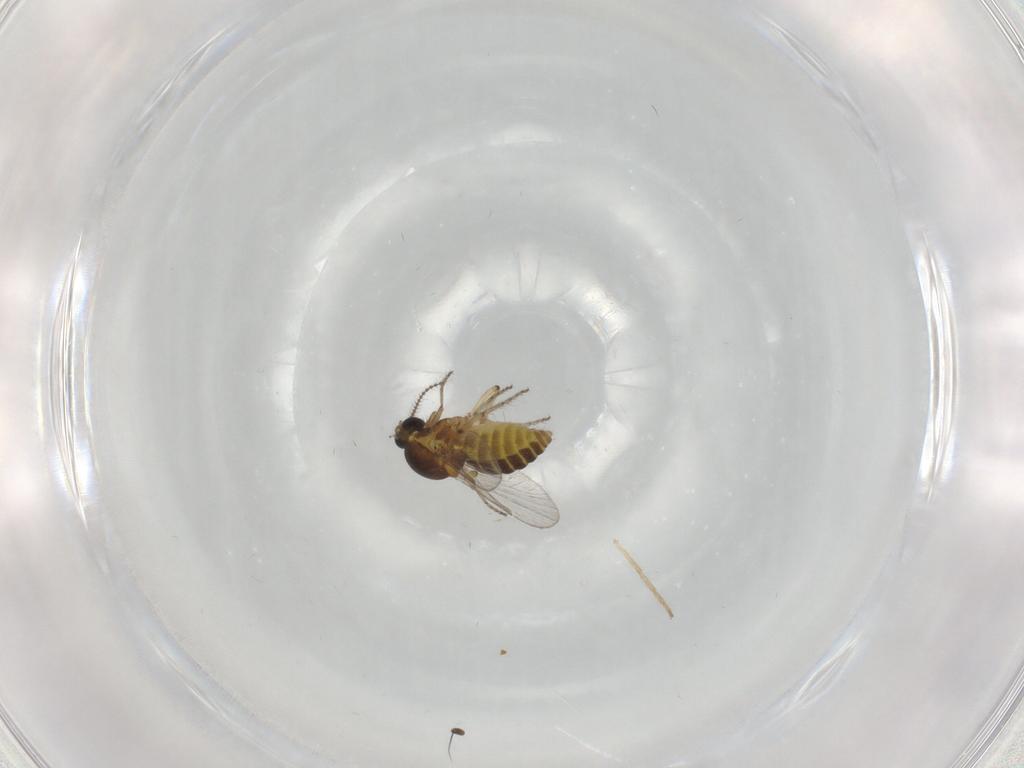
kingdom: Animalia
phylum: Arthropoda
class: Insecta
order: Diptera
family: Ceratopogonidae
